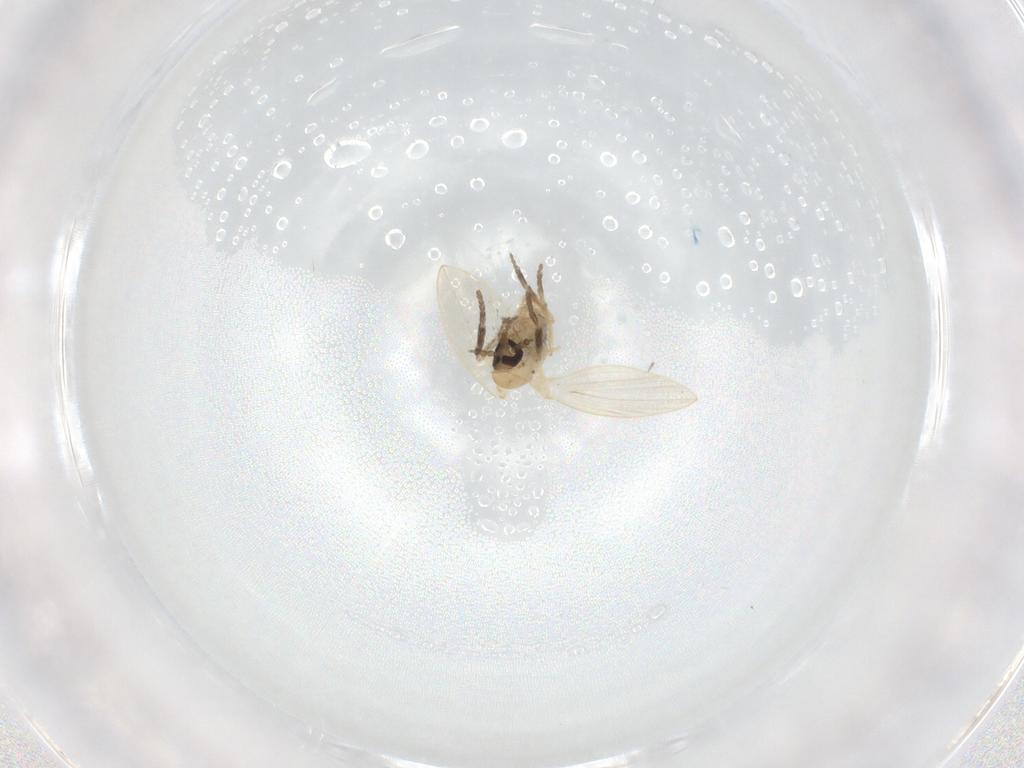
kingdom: Animalia
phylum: Arthropoda
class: Insecta
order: Diptera
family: Psychodidae
